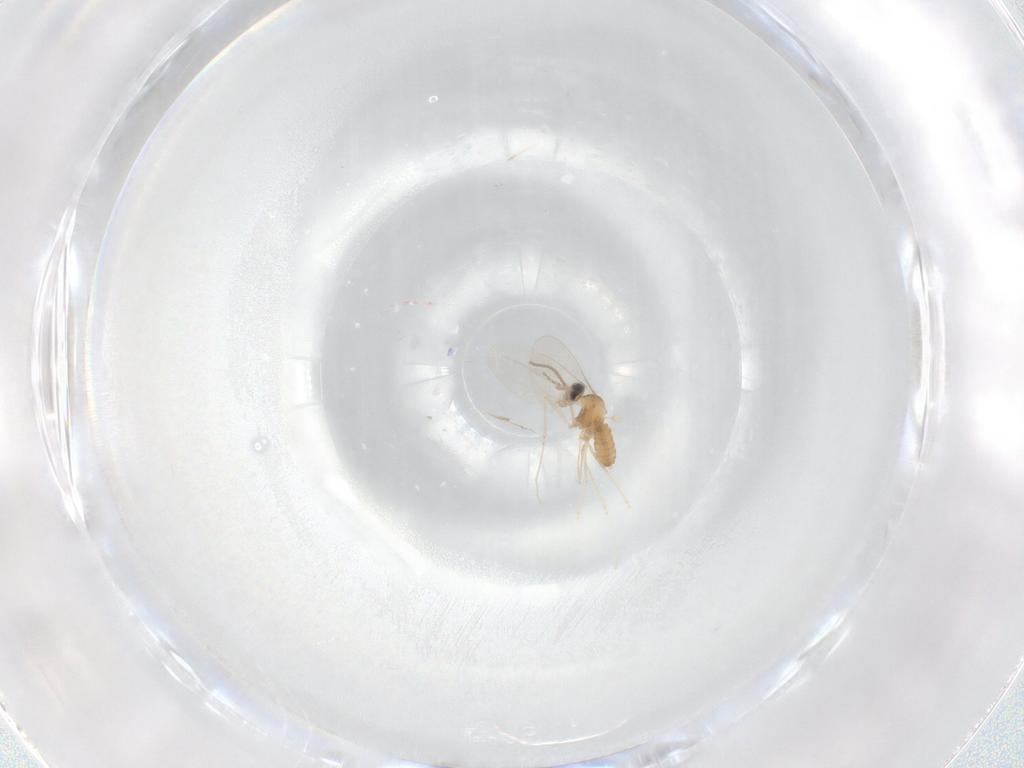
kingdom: Animalia
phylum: Arthropoda
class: Insecta
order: Diptera
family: Cecidomyiidae
